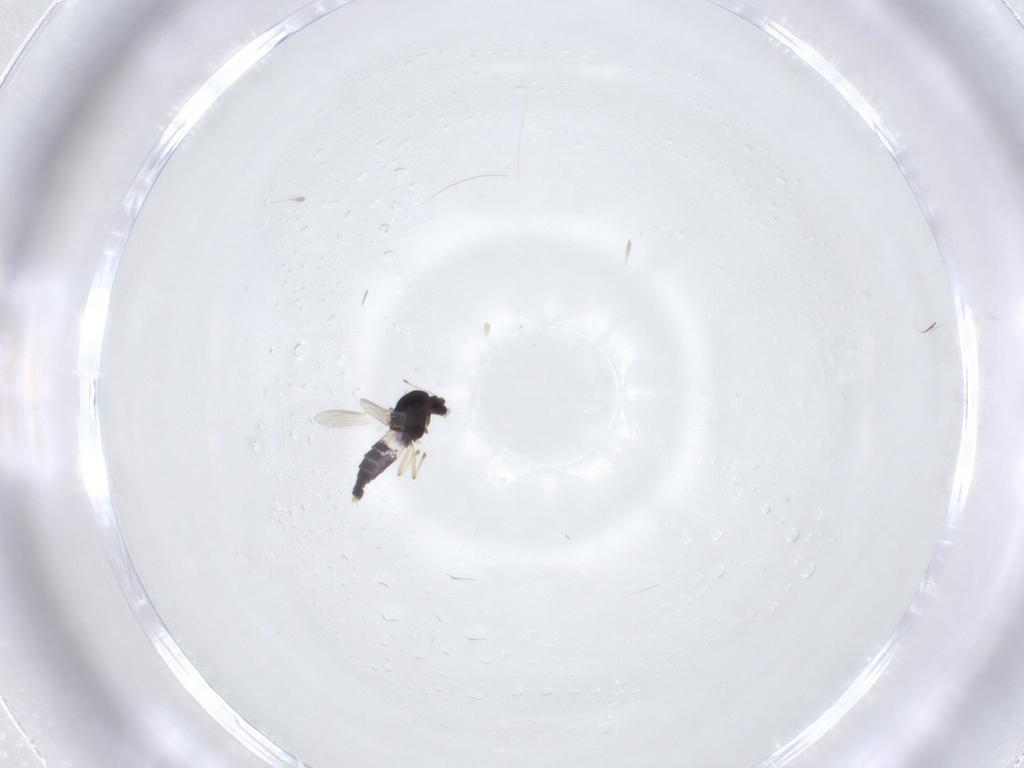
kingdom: Animalia
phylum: Arthropoda
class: Insecta
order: Diptera
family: Chironomidae
